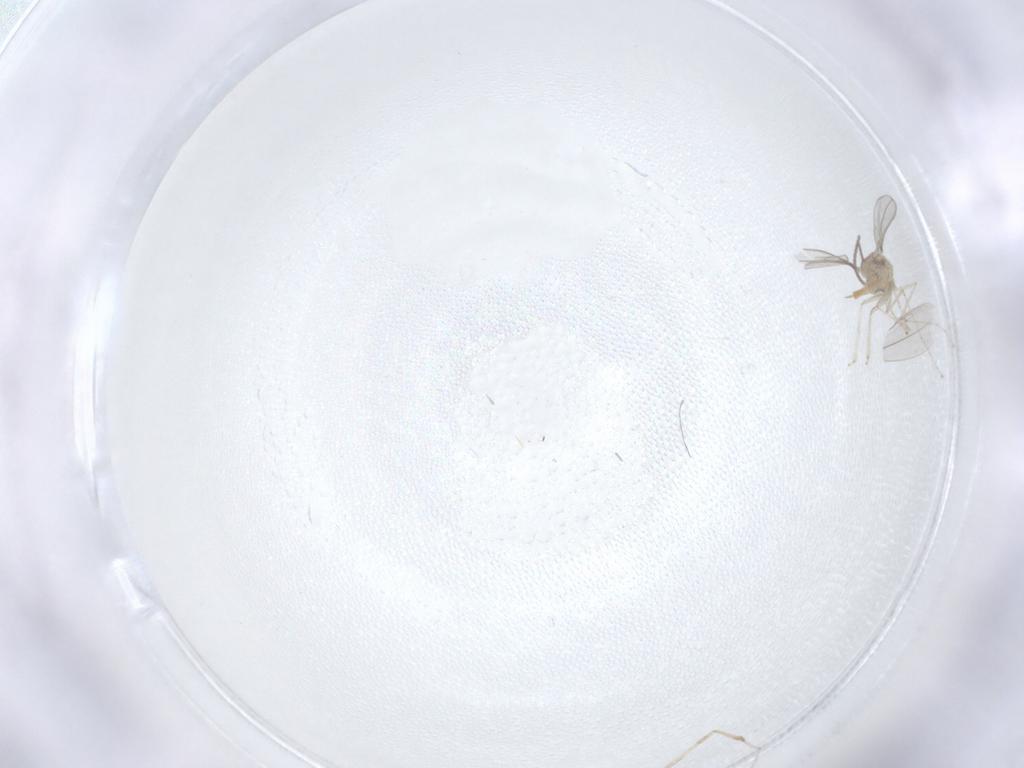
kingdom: Animalia
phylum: Arthropoda
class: Insecta
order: Diptera
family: Cecidomyiidae
